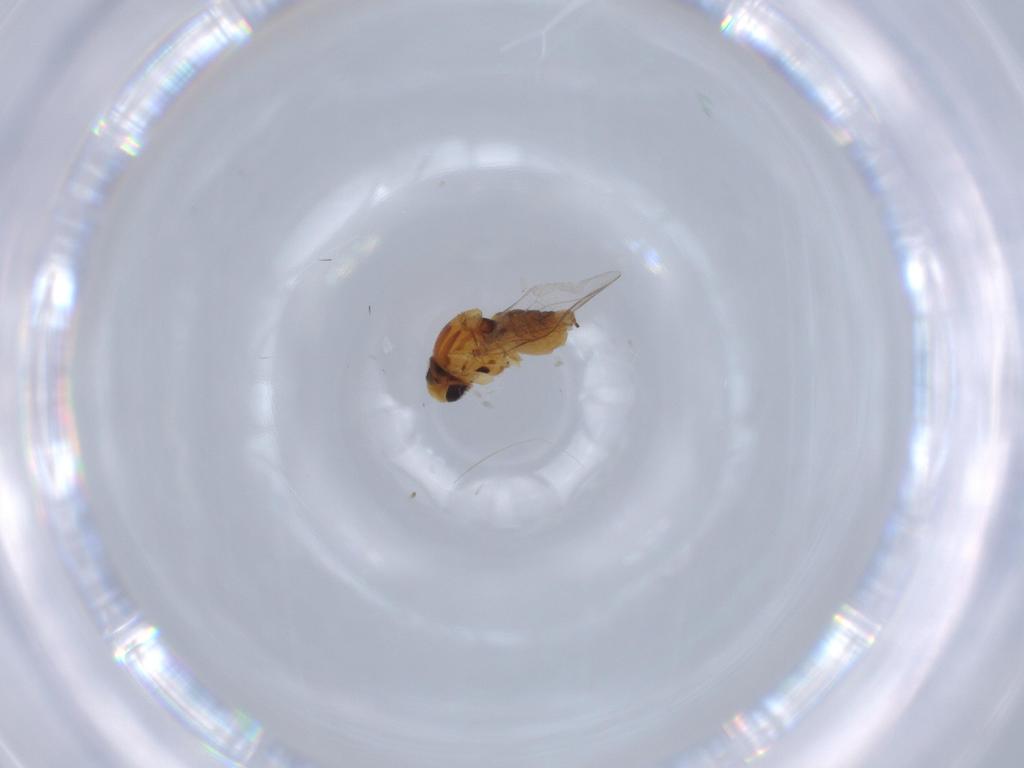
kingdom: Animalia
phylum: Arthropoda
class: Insecta
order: Diptera
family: Chloropidae
